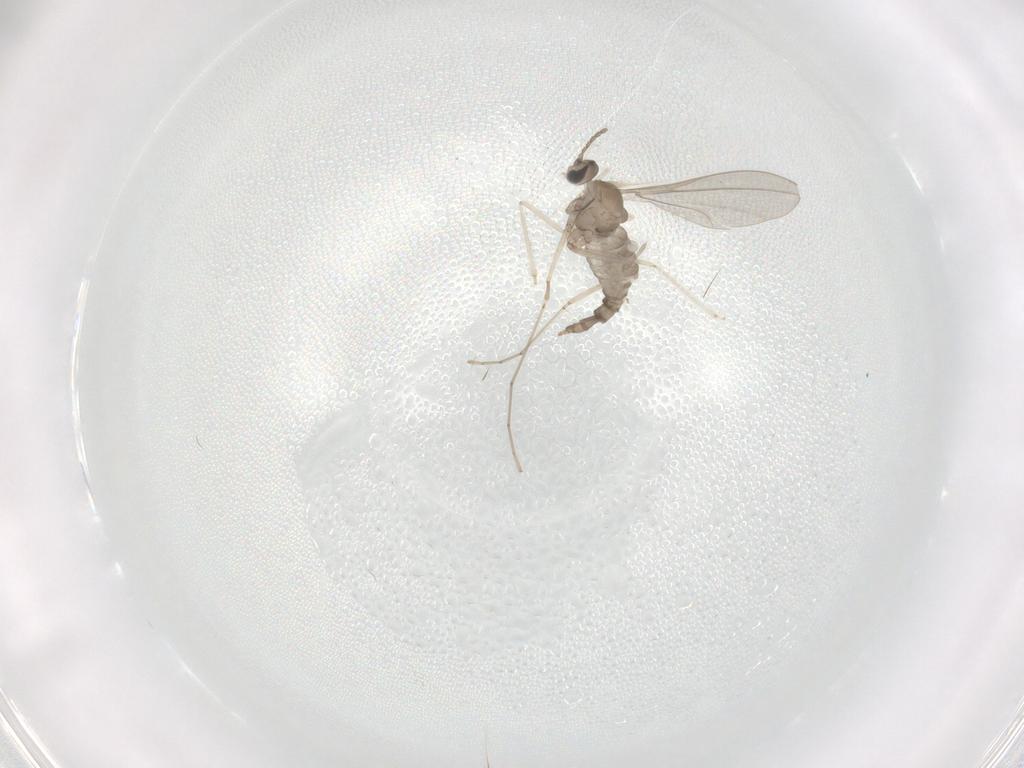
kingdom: Animalia
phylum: Arthropoda
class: Insecta
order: Diptera
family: Cecidomyiidae
